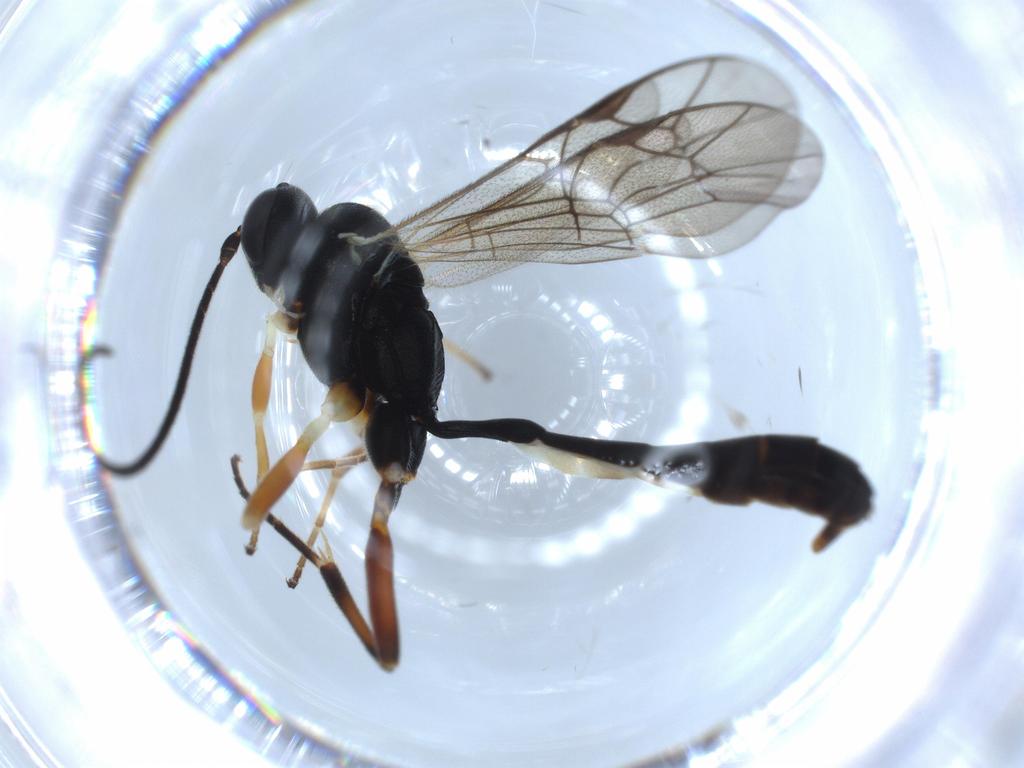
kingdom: Animalia
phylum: Arthropoda
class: Insecta
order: Hymenoptera
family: Ichneumonidae
